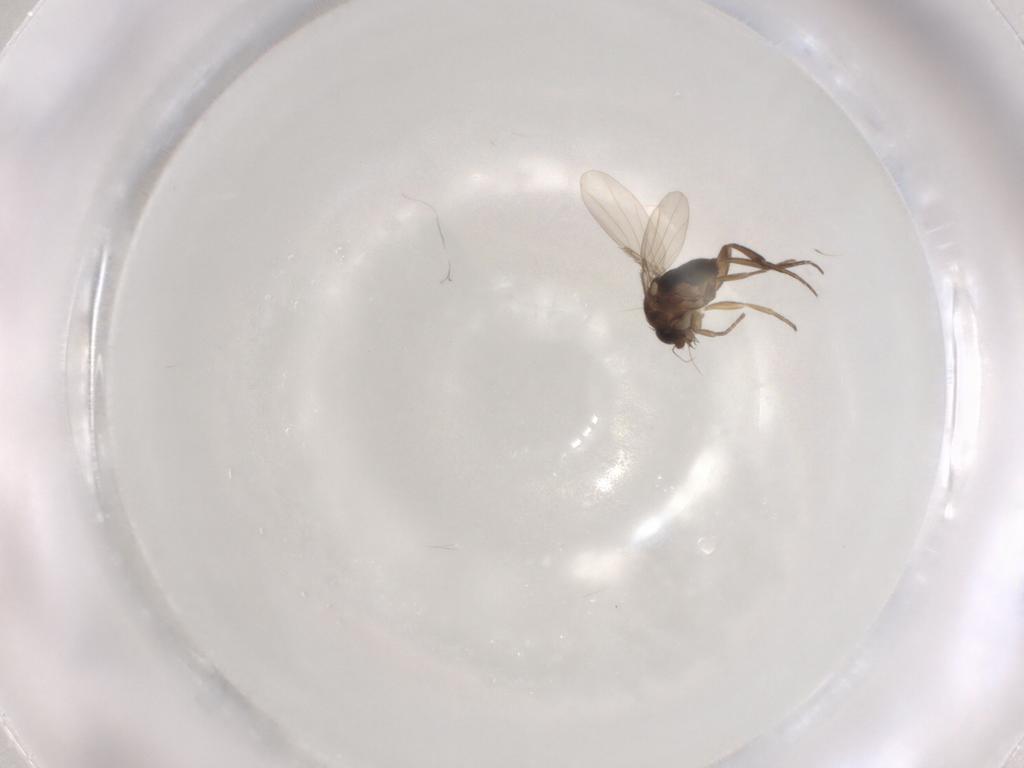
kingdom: Animalia
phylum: Arthropoda
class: Insecta
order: Diptera
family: Phoridae
